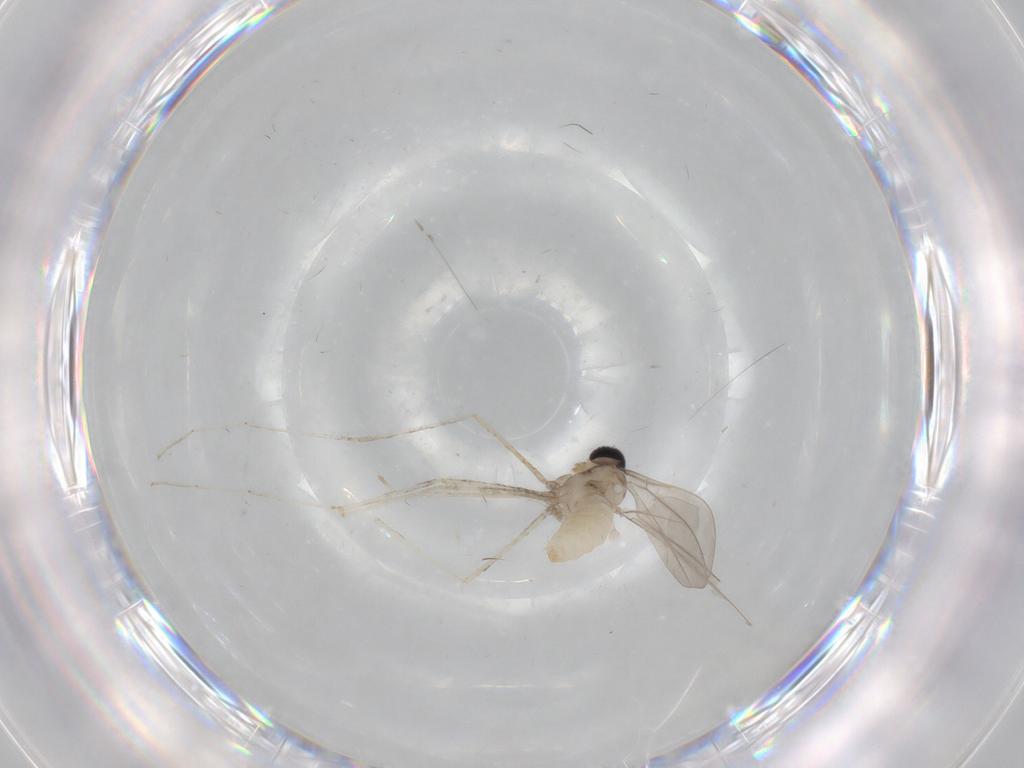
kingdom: Animalia
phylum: Arthropoda
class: Insecta
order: Diptera
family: Cecidomyiidae
